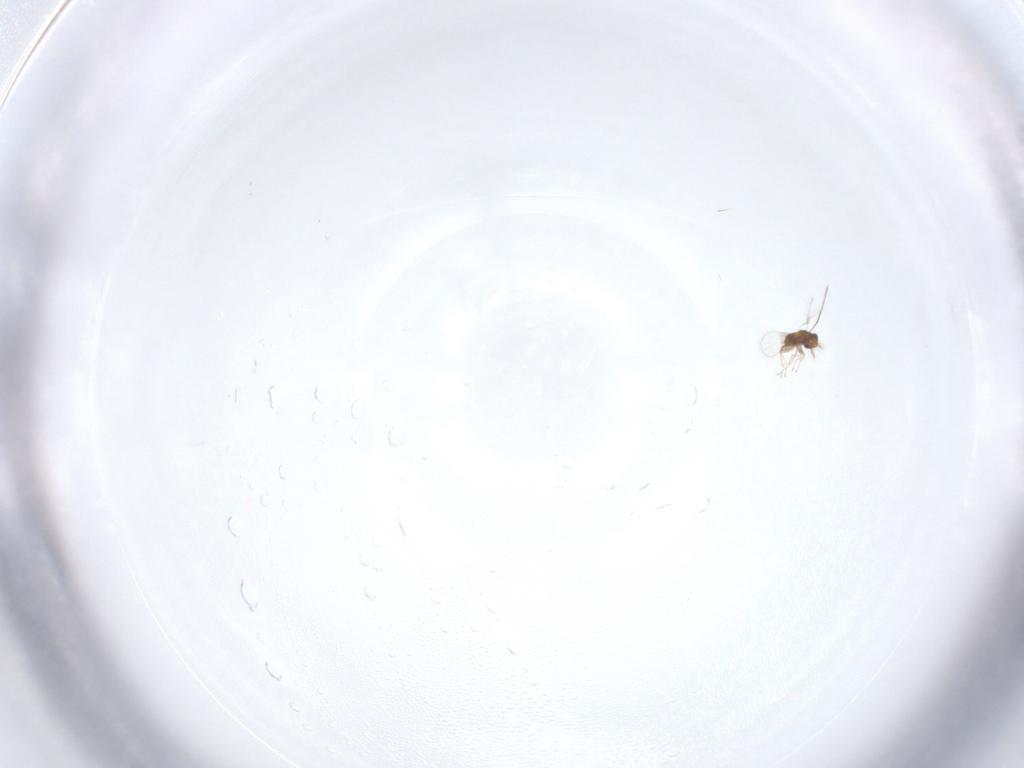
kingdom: Animalia
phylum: Arthropoda
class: Insecta
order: Hymenoptera
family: Trichogrammatidae
